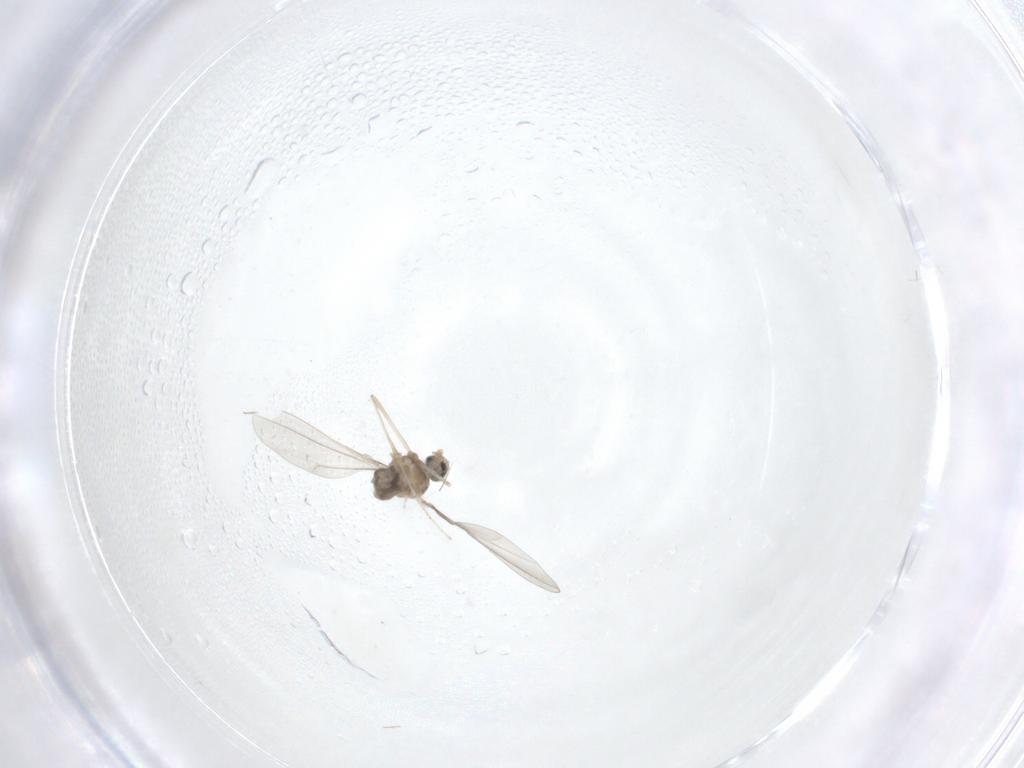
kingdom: Animalia
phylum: Arthropoda
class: Insecta
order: Diptera
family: Cecidomyiidae
